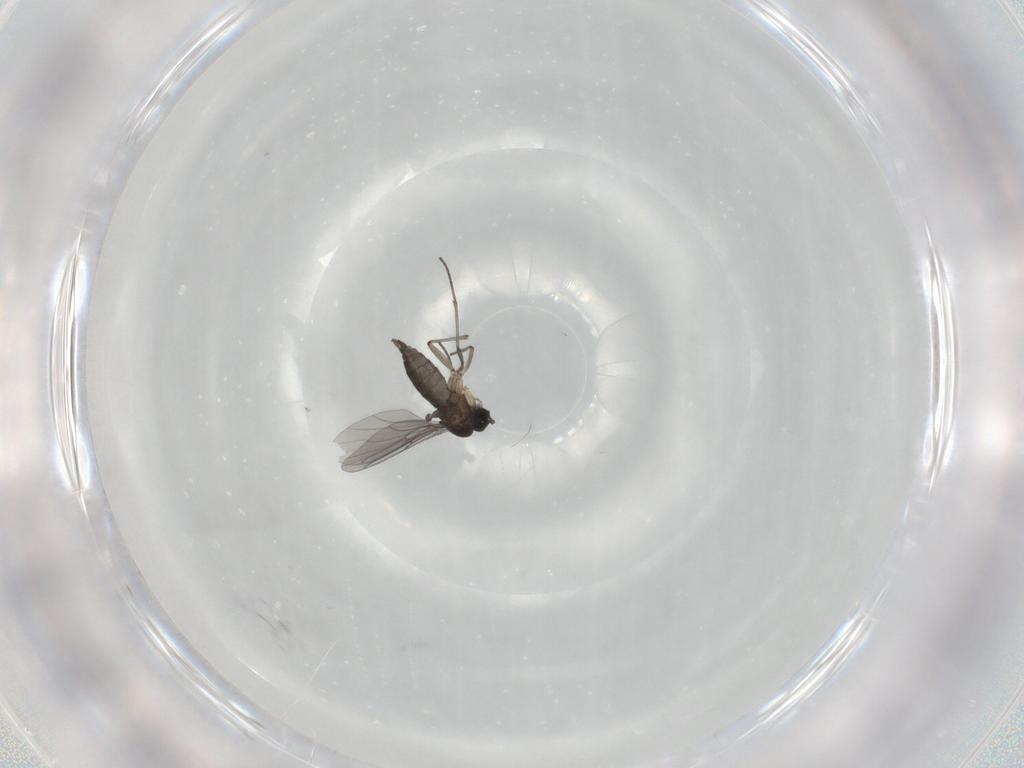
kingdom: Animalia
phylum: Arthropoda
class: Insecta
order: Diptera
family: Sciaridae
